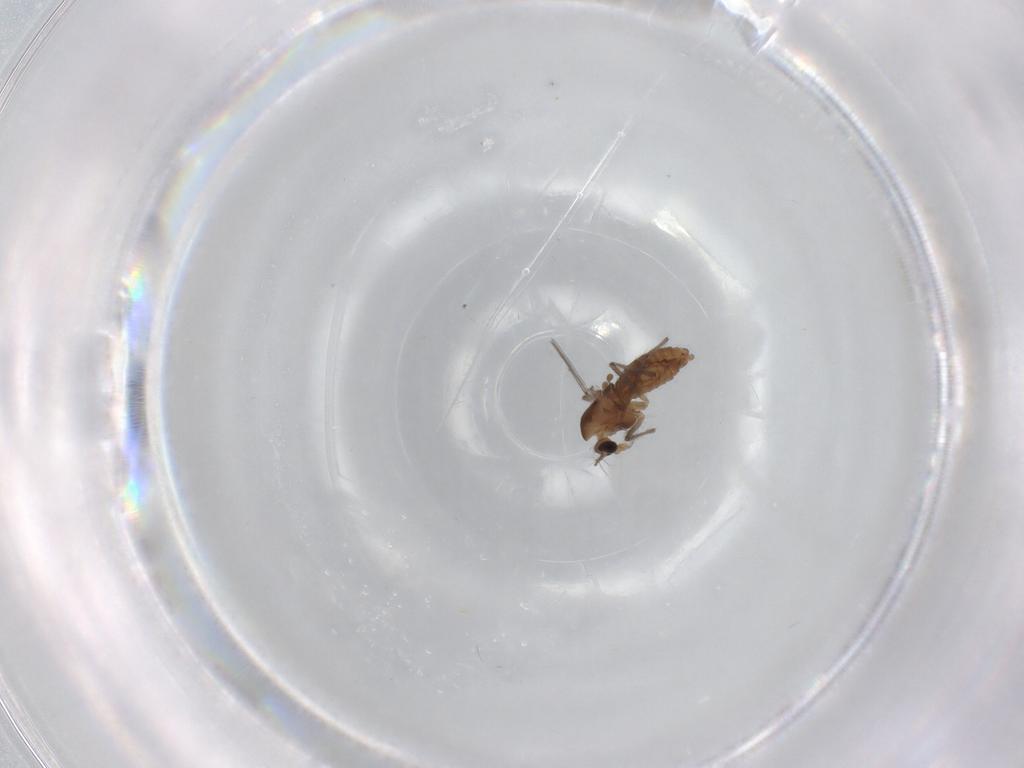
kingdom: Animalia
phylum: Arthropoda
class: Insecta
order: Diptera
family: Chironomidae
